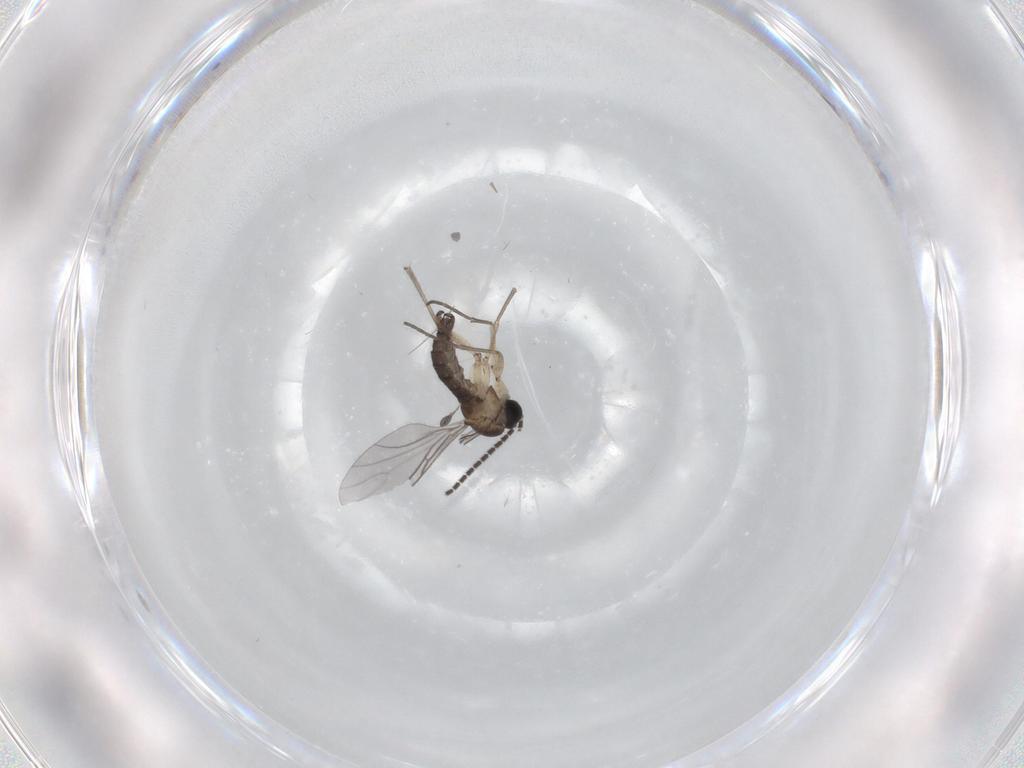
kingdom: Animalia
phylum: Arthropoda
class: Insecta
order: Diptera
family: Sciaridae
